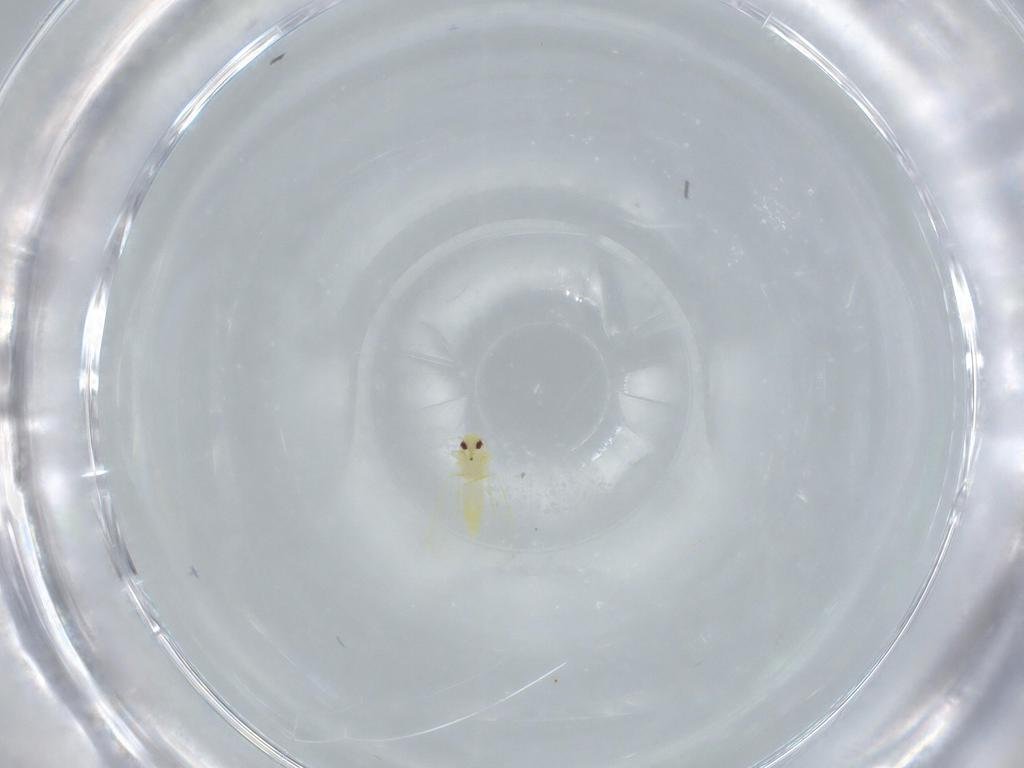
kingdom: Animalia
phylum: Arthropoda
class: Insecta
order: Hemiptera
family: Aleyrodidae
